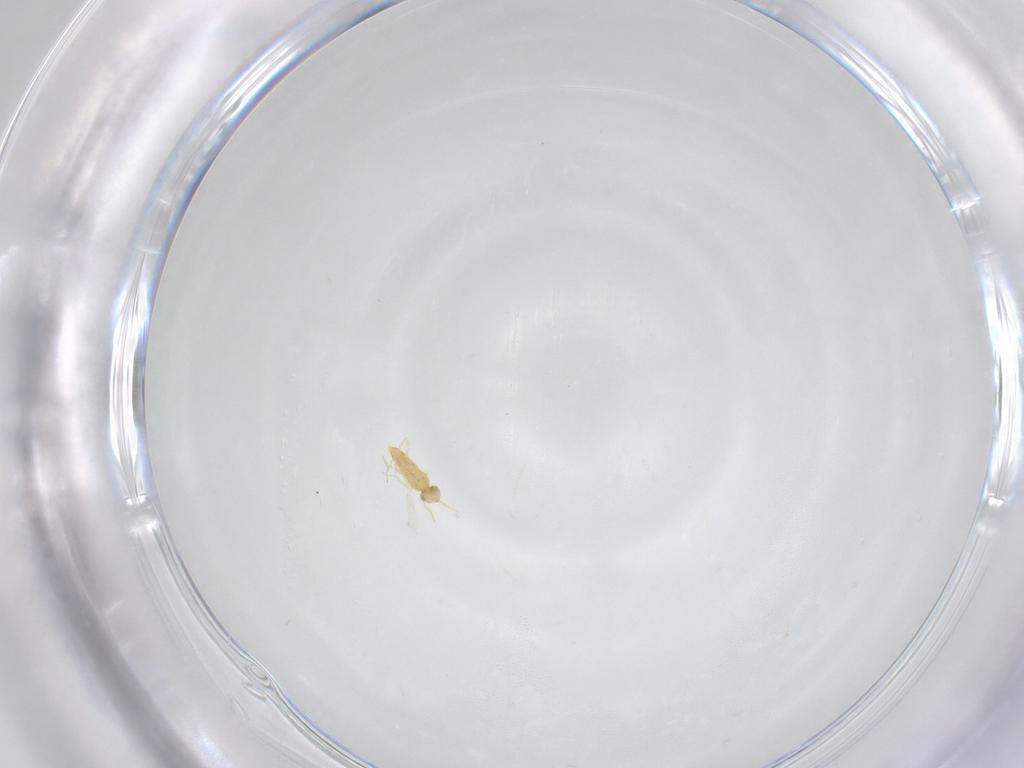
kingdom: Animalia
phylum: Arthropoda
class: Insecta
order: Hymenoptera
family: Aphelinidae
